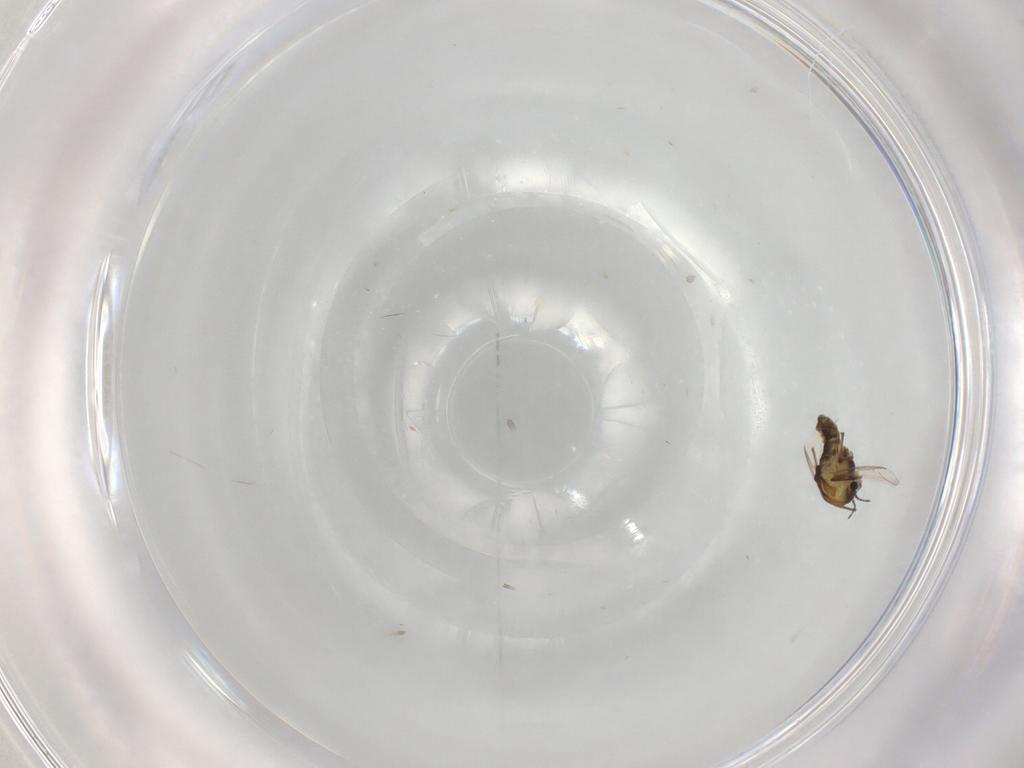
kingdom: Animalia
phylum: Arthropoda
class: Insecta
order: Diptera
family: Chironomidae
